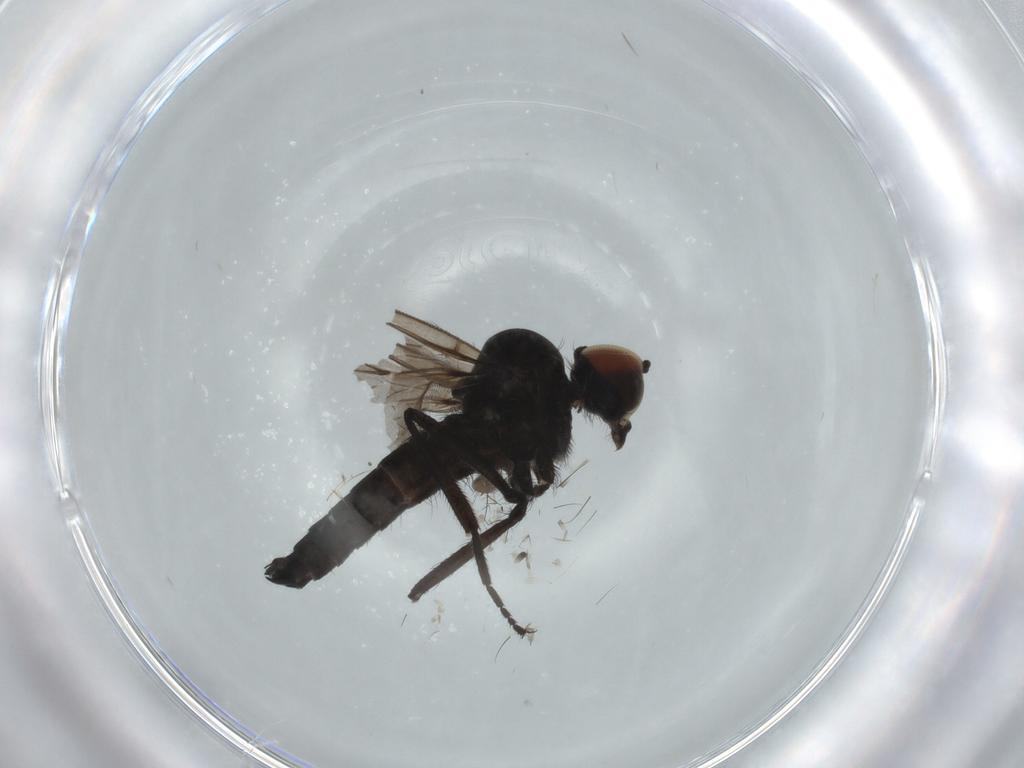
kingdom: Animalia
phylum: Arthropoda
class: Insecta
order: Diptera
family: Hybotidae
